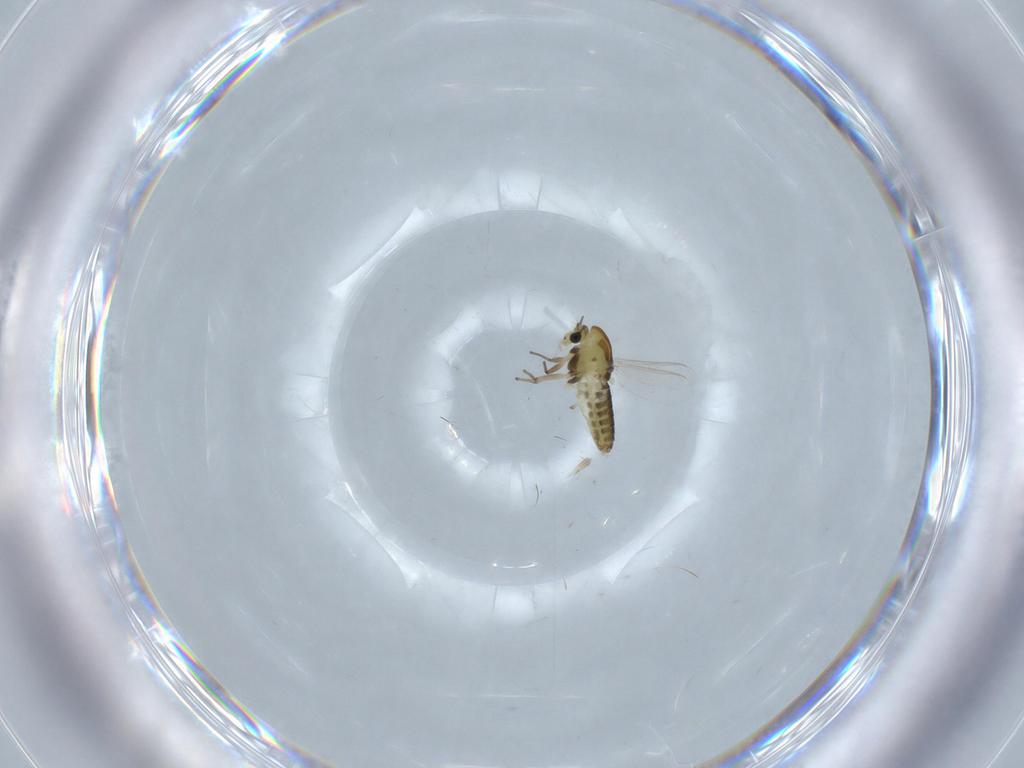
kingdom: Animalia
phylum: Arthropoda
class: Insecta
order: Diptera
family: Chironomidae
